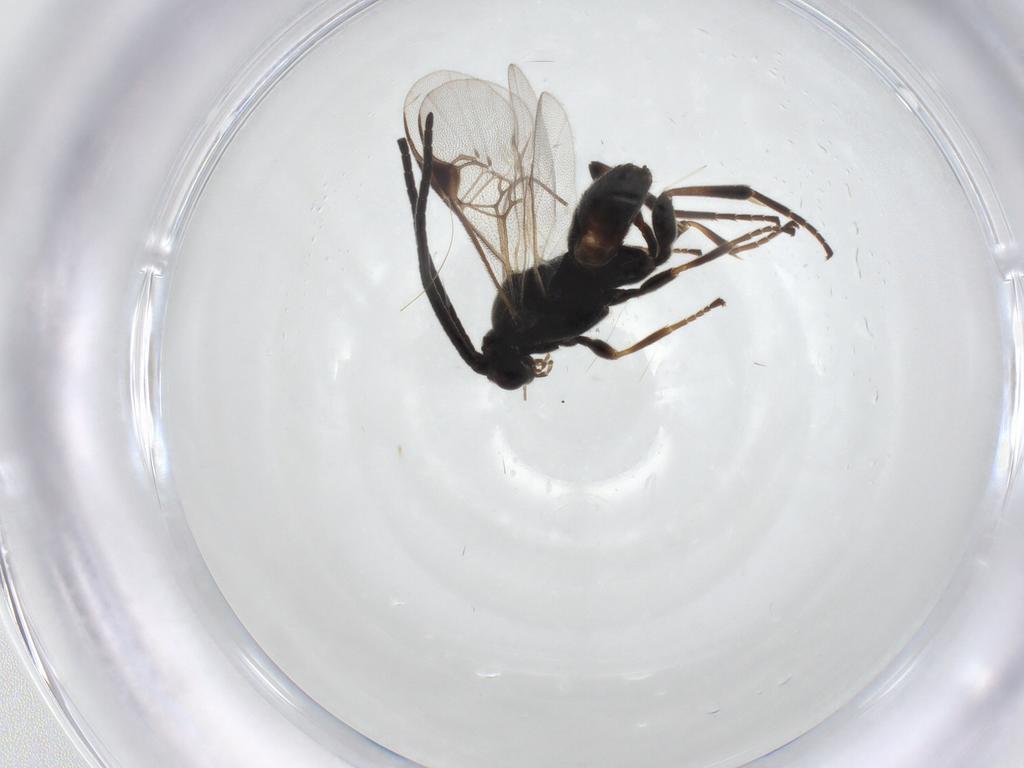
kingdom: Animalia
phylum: Arthropoda
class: Insecta
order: Hymenoptera
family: Braconidae
